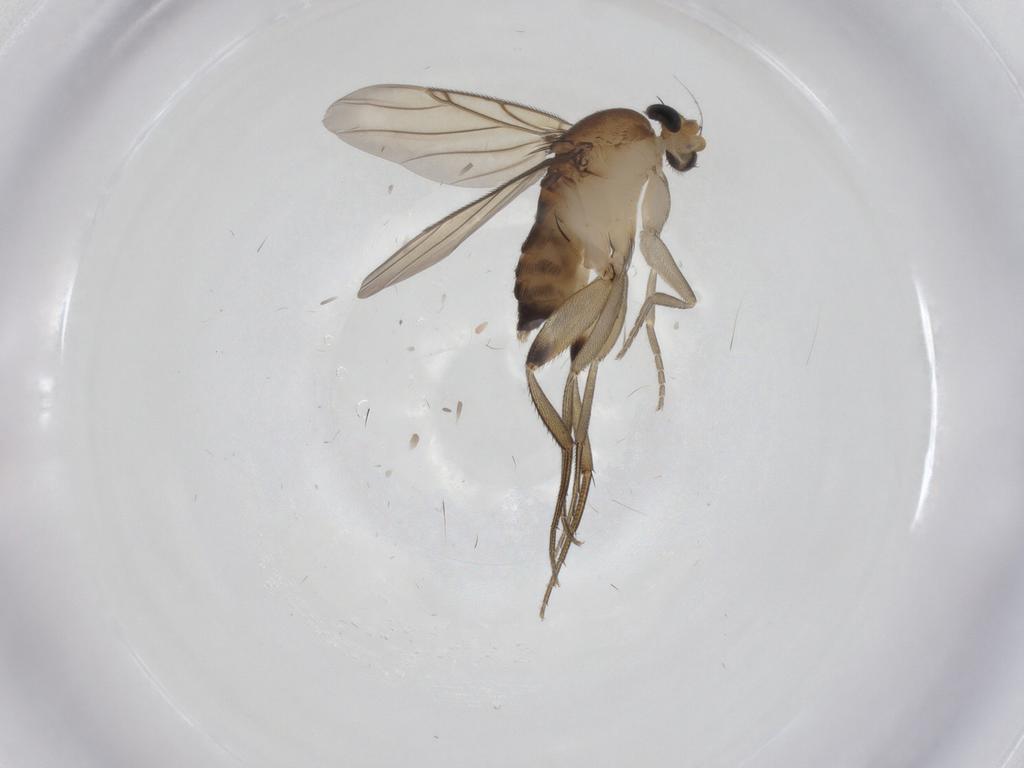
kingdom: Animalia
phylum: Arthropoda
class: Insecta
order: Diptera
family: Phoridae
